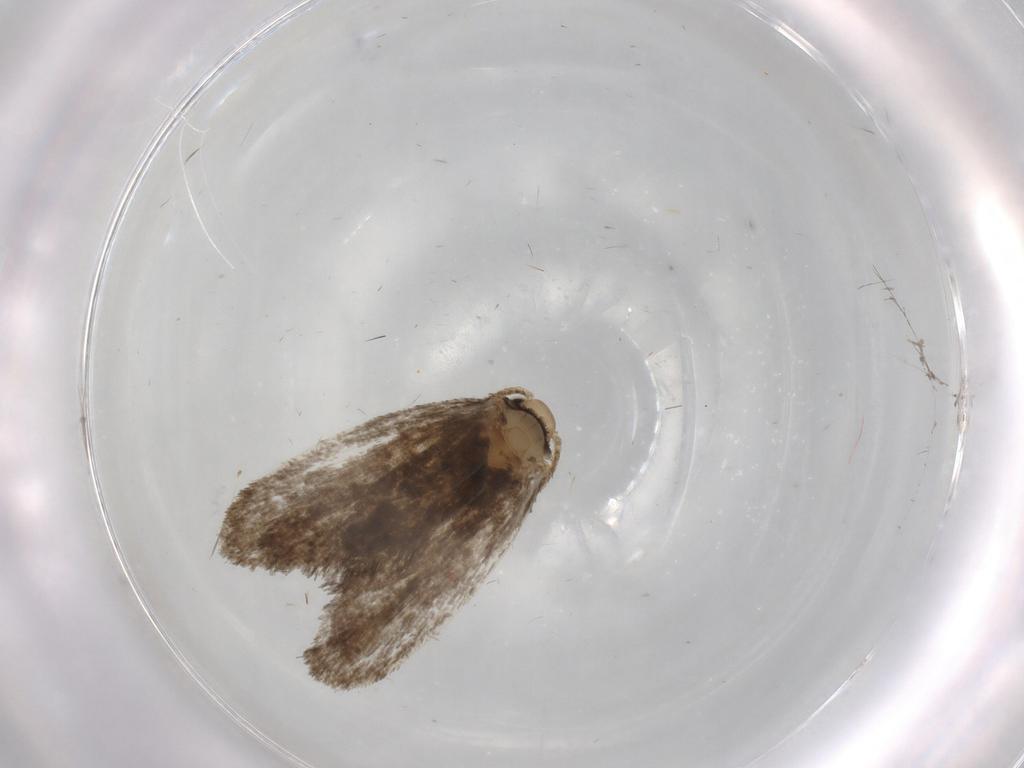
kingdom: Animalia
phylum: Arthropoda
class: Insecta
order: Lepidoptera
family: Psychidae
